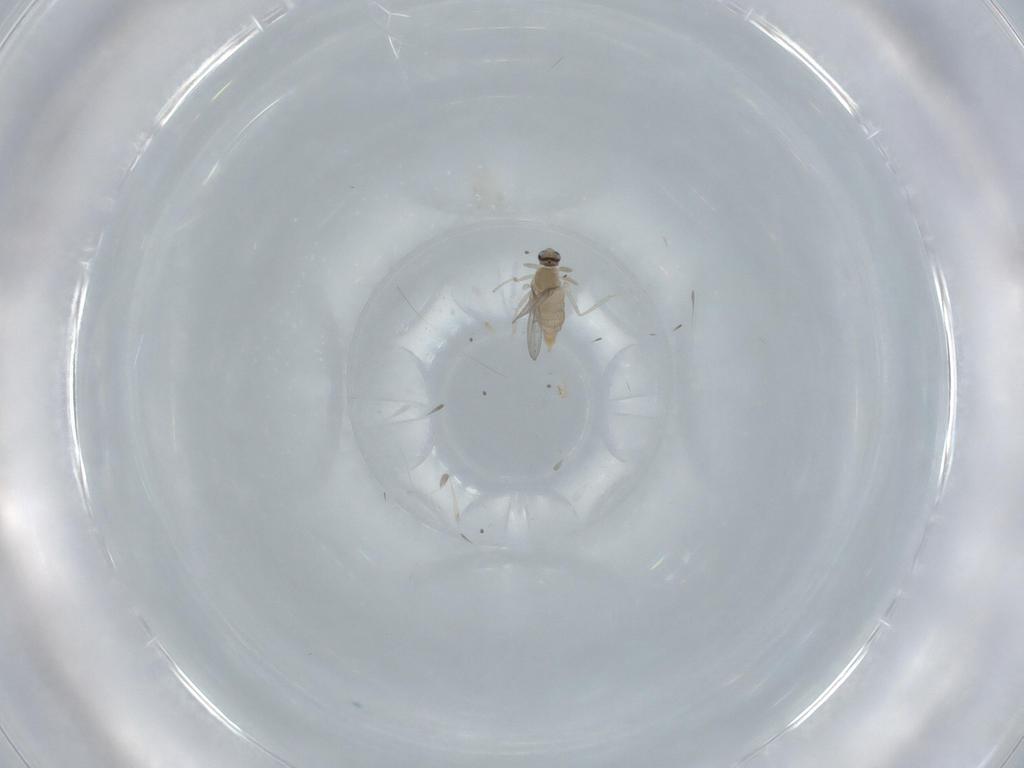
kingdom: Animalia
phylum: Arthropoda
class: Insecta
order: Diptera
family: Cecidomyiidae
